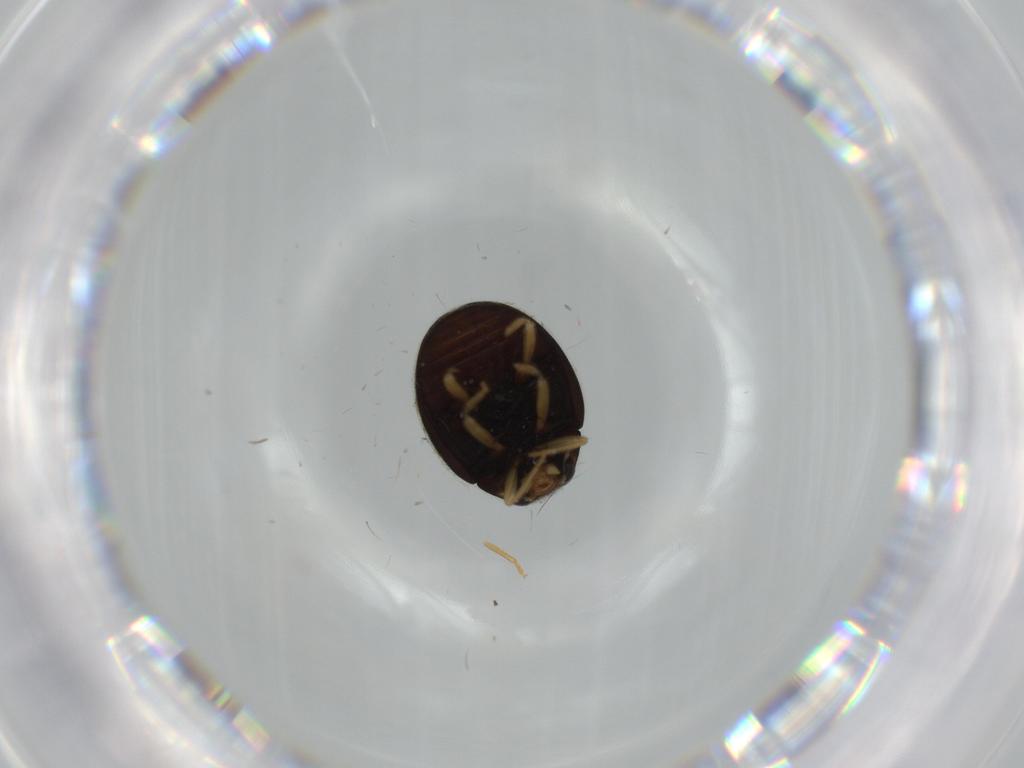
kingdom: Animalia
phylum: Arthropoda
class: Insecta
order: Coleoptera
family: Coccinellidae
